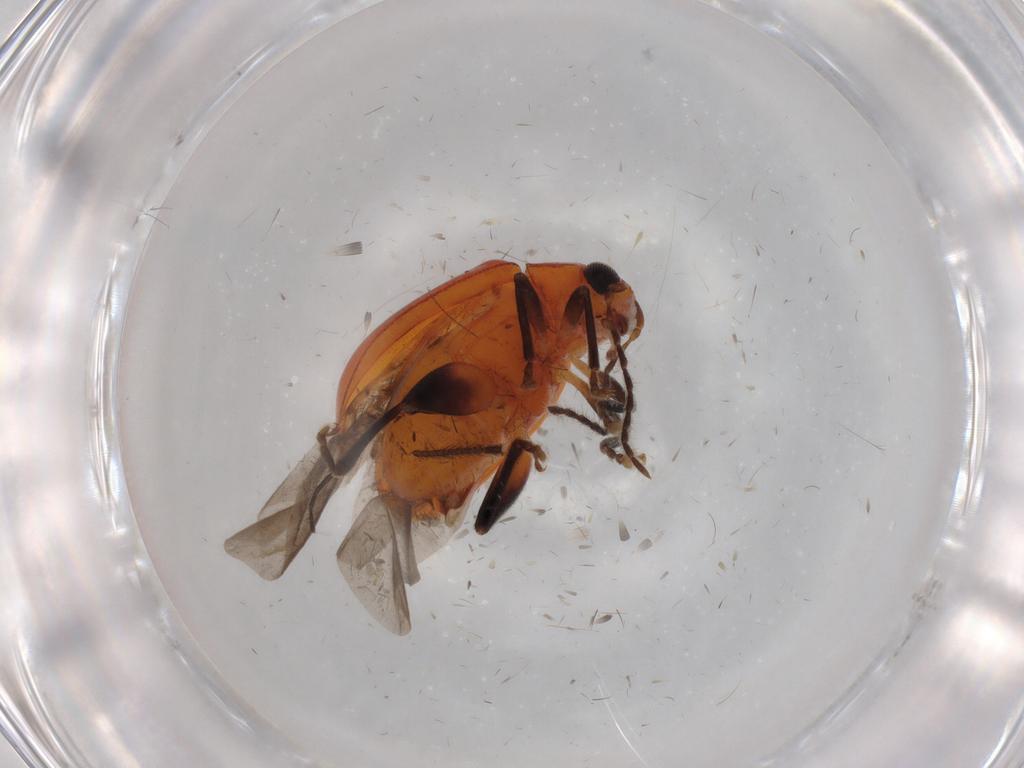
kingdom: Animalia
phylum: Arthropoda
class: Insecta
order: Coleoptera
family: Chrysomelidae
